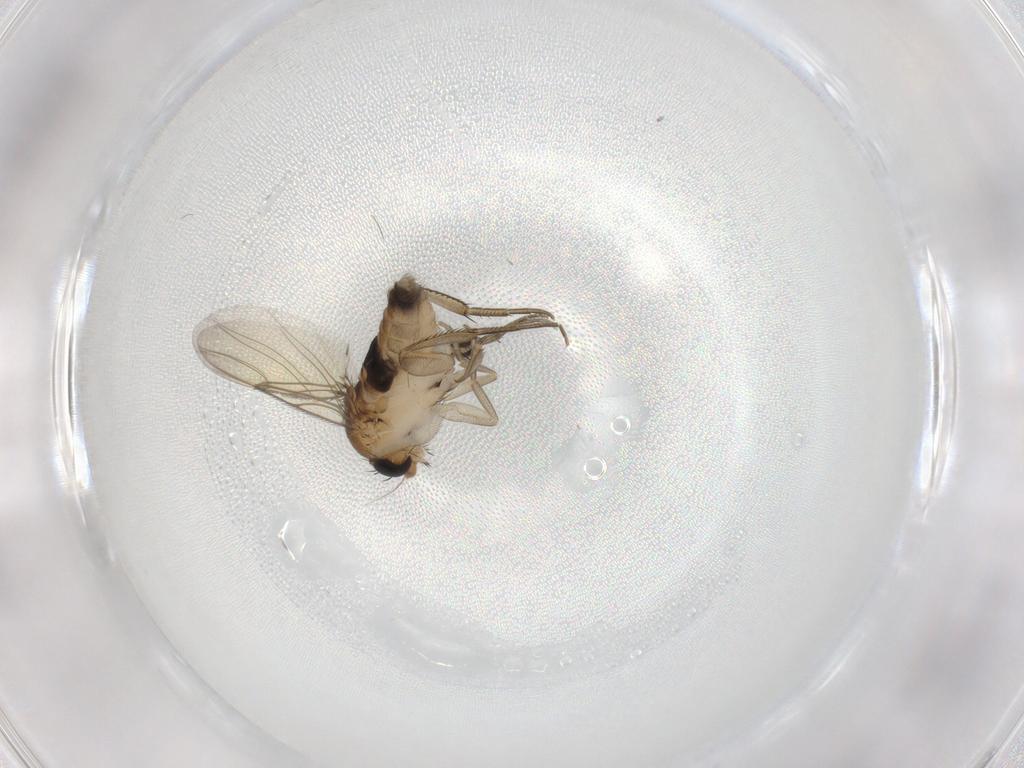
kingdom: Animalia
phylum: Arthropoda
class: Insecta
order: Diptera
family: Phoridae
